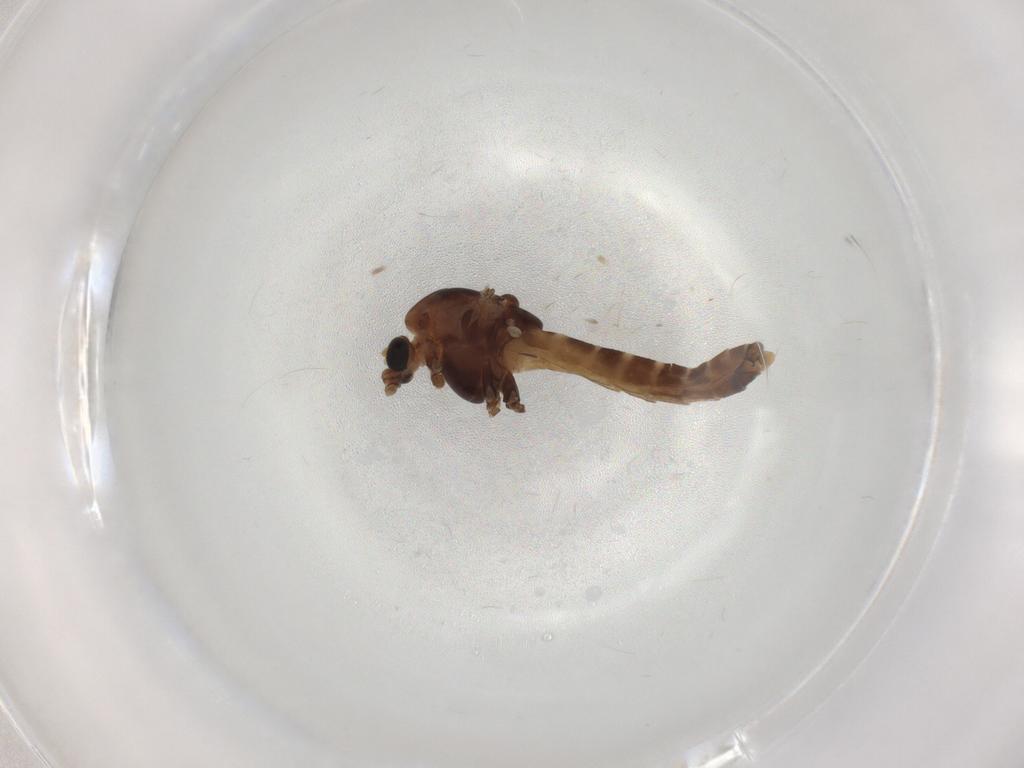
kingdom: Animalia
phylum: Arthropoda
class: Insecta
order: Diptera
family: Chironomidae
